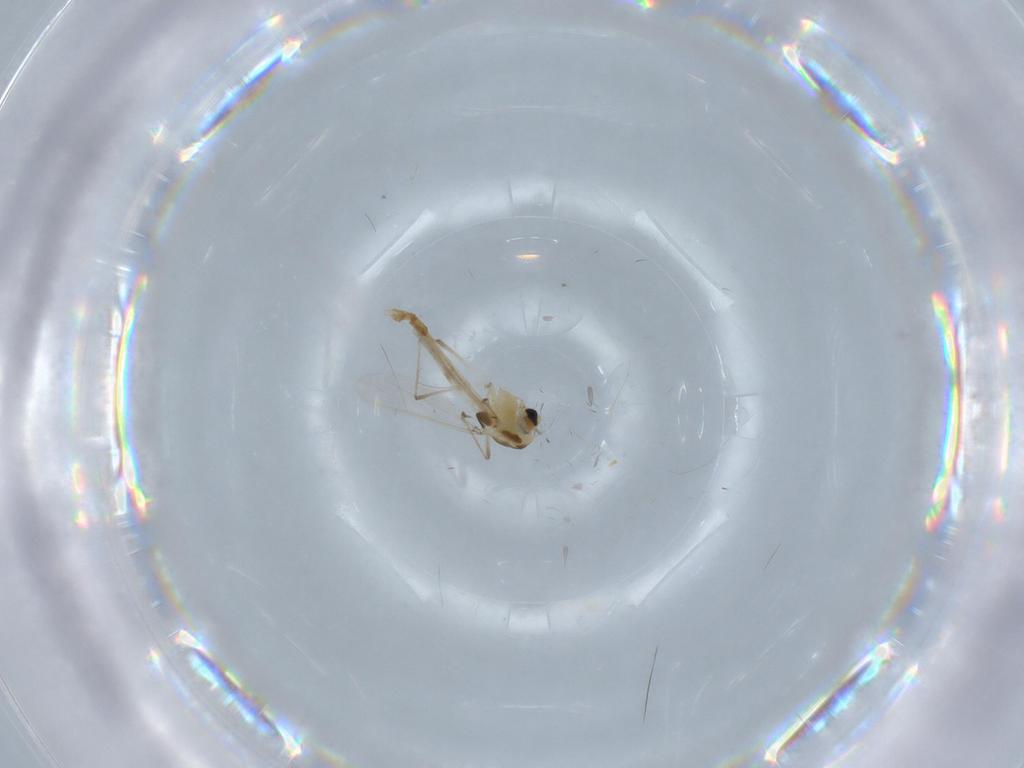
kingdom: Animalia
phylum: Arthropoda
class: Insecta
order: Diptera
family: Chironomidae
